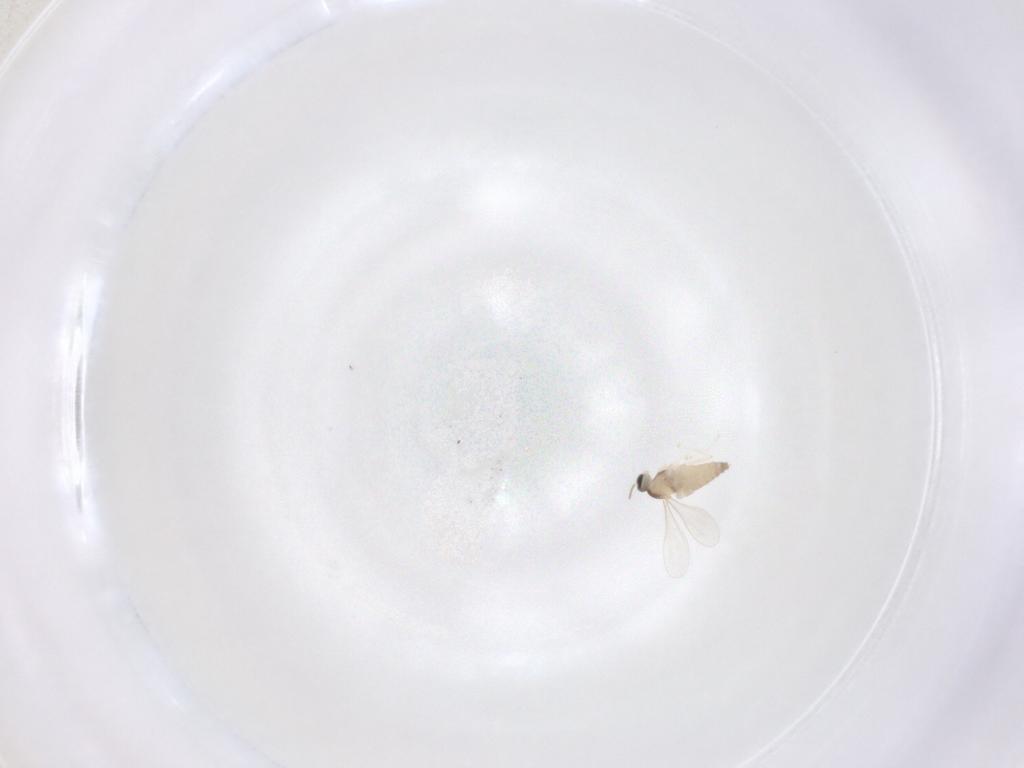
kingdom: Animalia
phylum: Arthropoda
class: Insecta
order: Diptera
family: Cecidomyiidae
